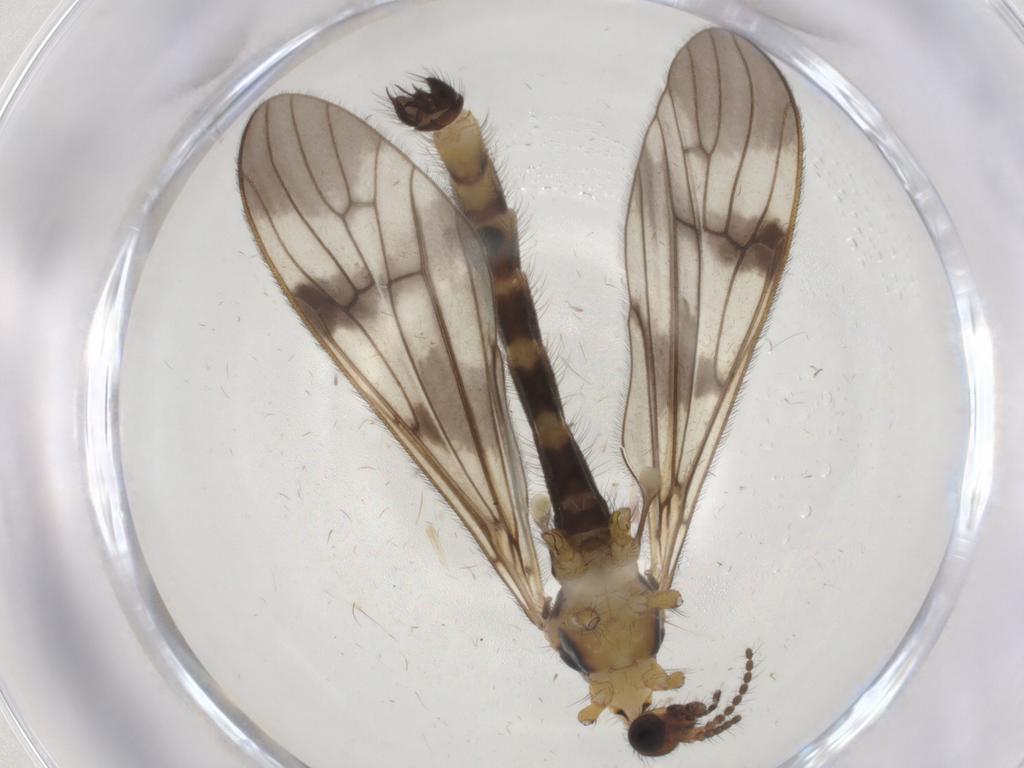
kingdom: Animalia
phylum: Arthropoda
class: Insecta
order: Diptera
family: Limoniidae
